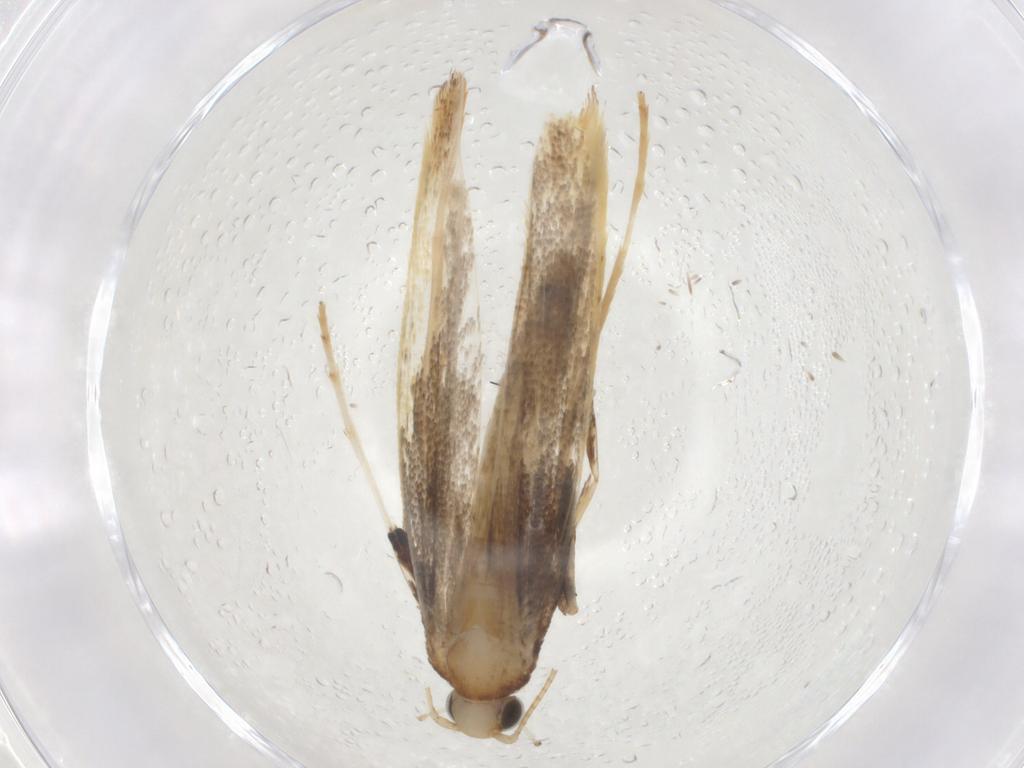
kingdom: Animalia
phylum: Arthropoda
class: Insecta
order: Lepidoptera
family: Gracillariidae
